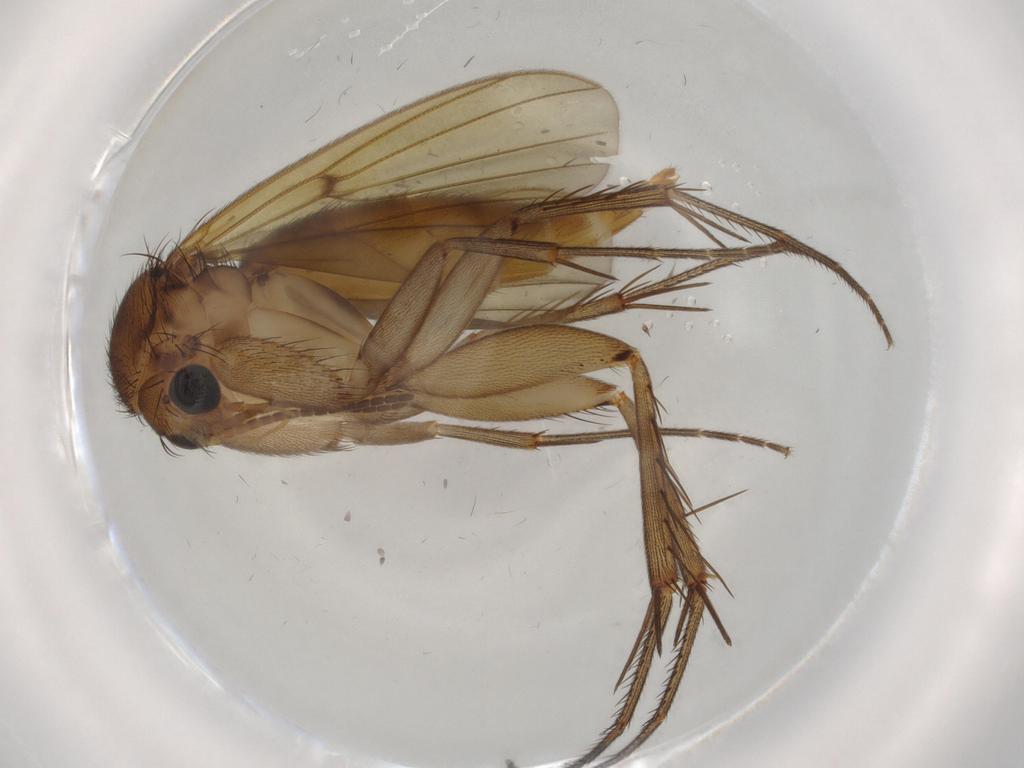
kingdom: Animalia
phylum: Arthropoda
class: Insecta
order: Diptera
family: Mycetophilidae
